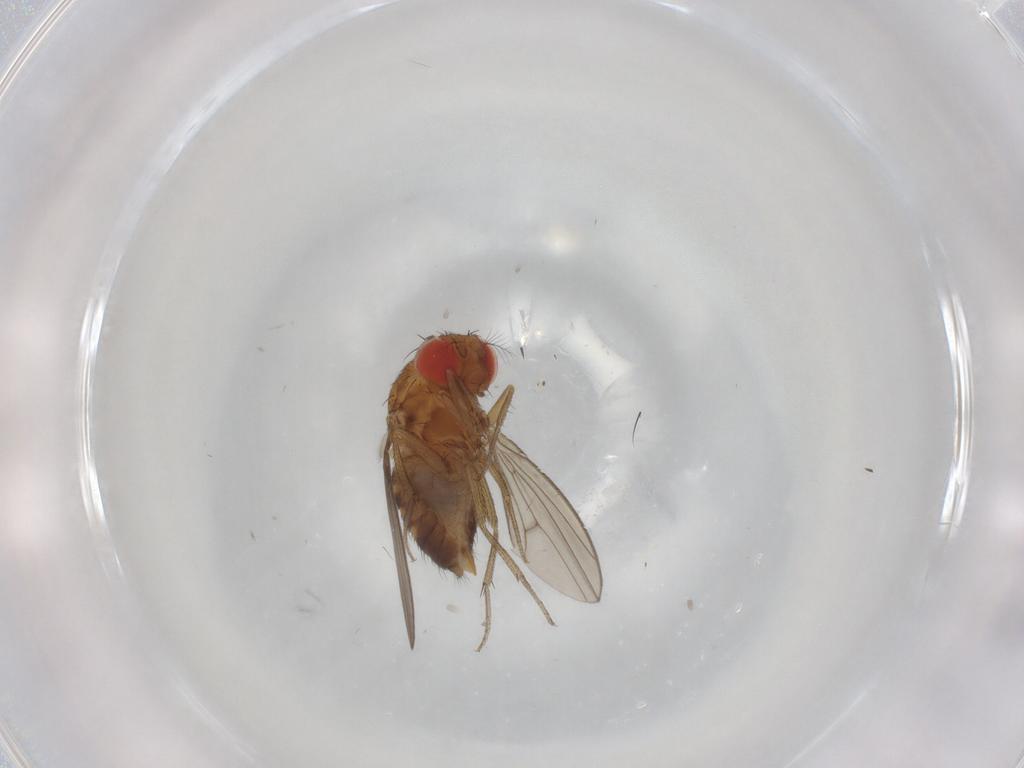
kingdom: Animalia
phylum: Arthropoda
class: Insecta
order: Diptera
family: Drosophilidae
